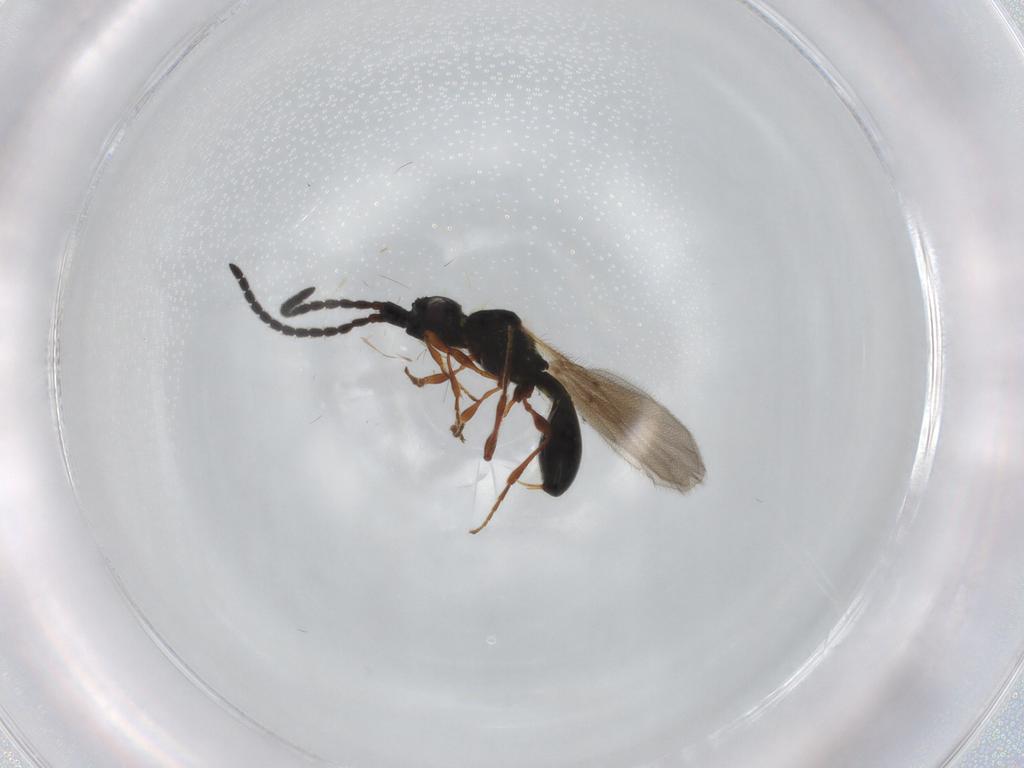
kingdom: Animalia
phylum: Arthropoda
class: Insecta
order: Hymenoptera
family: Diapriidae
